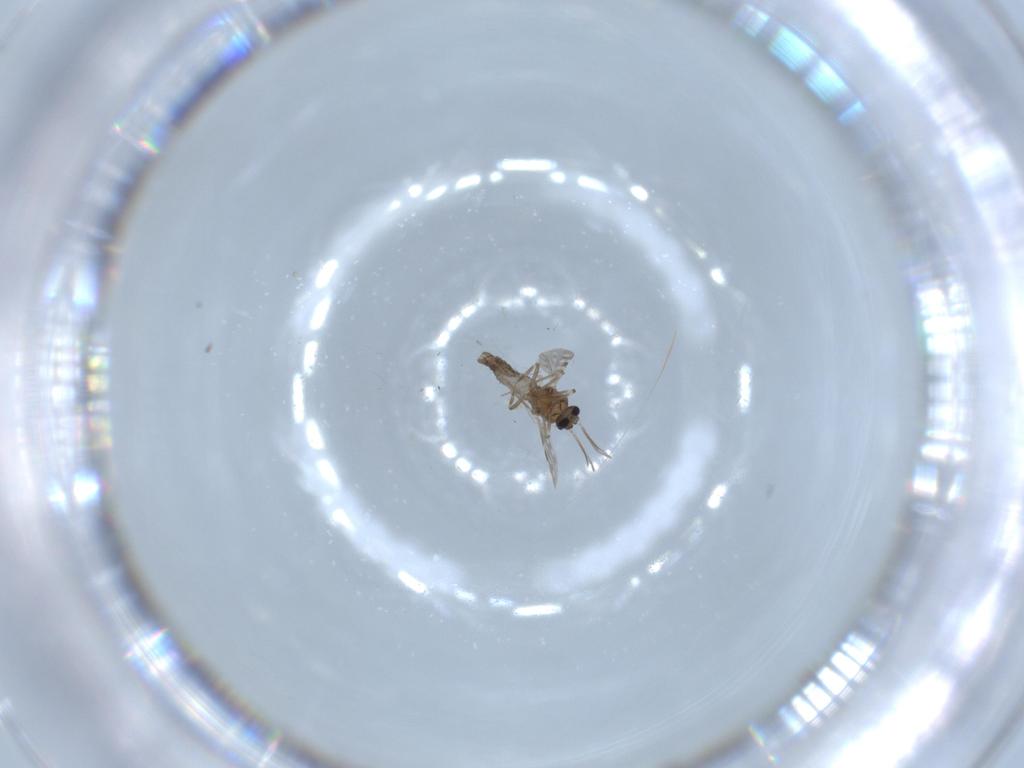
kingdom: Animalia
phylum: Arthropoda
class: Insecta
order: Diptera
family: Ceratopogonidae
